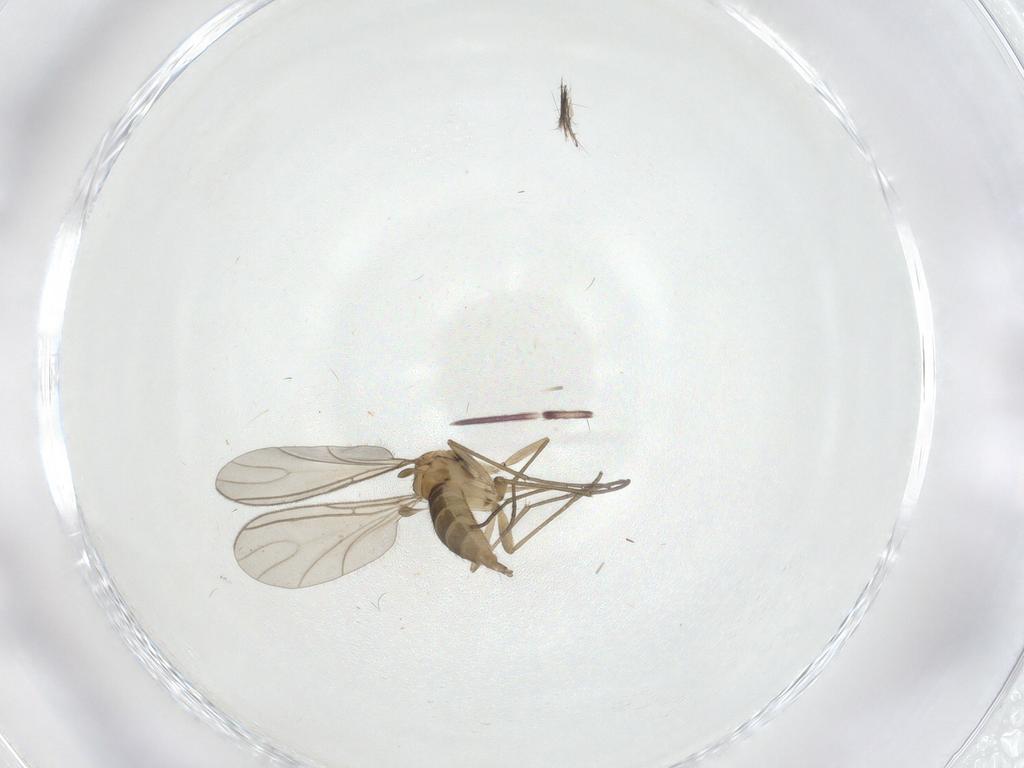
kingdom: Animalia
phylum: Arthropoda
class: Insecta
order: Diptera
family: Sciaridae
